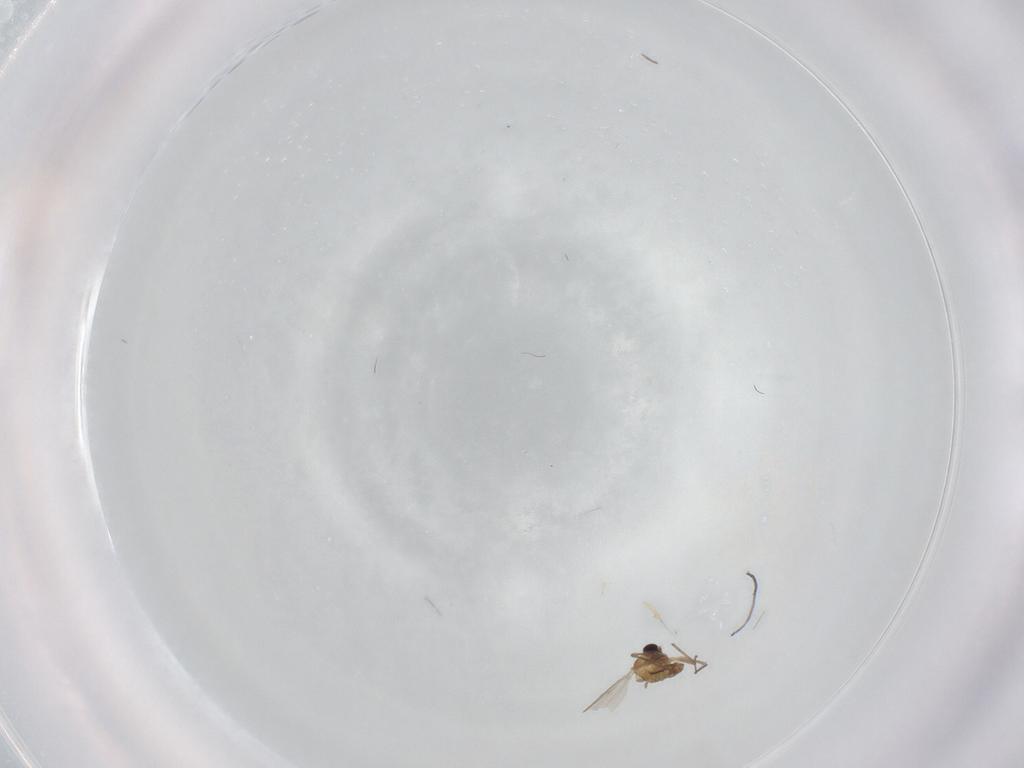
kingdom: Animalia
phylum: Arthropoda
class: Insecta
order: Diptera
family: Chironomidae
